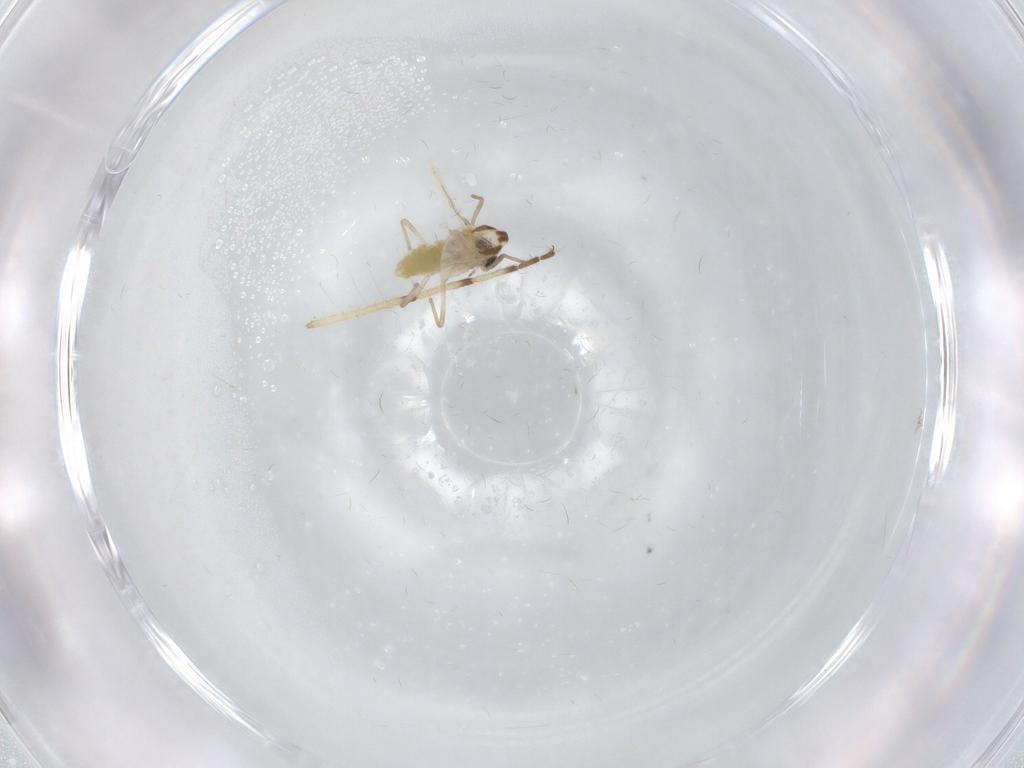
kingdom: Animalia
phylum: Arthropoda
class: Insecta
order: Diptera
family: Chironomidae
